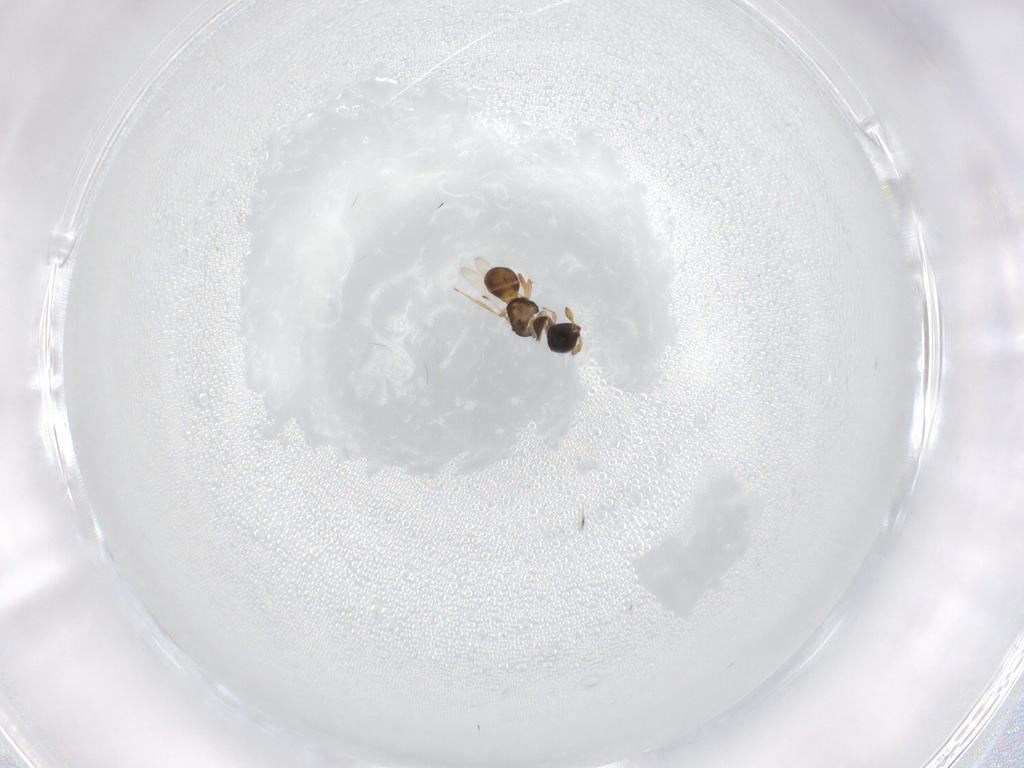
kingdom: Animalia
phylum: Arthropoda
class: Insecta
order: Hymenoptera
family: Scelionidae
